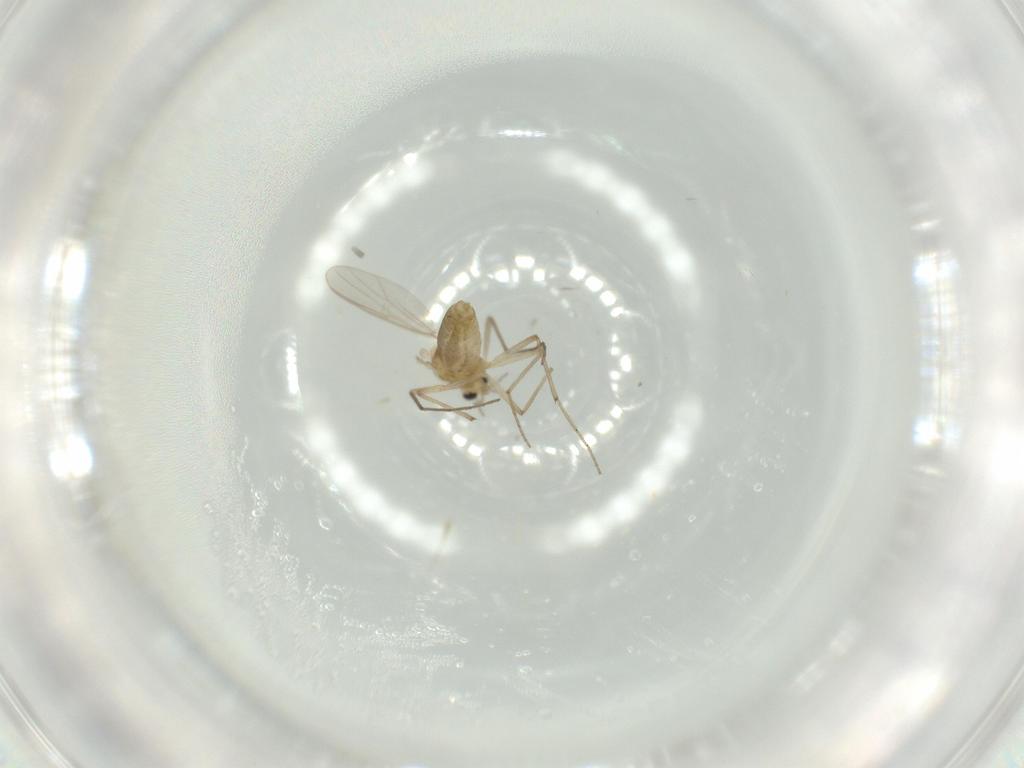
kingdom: Animalia
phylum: Arthropoda
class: Insecta
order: Diptera
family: Chironomidae
